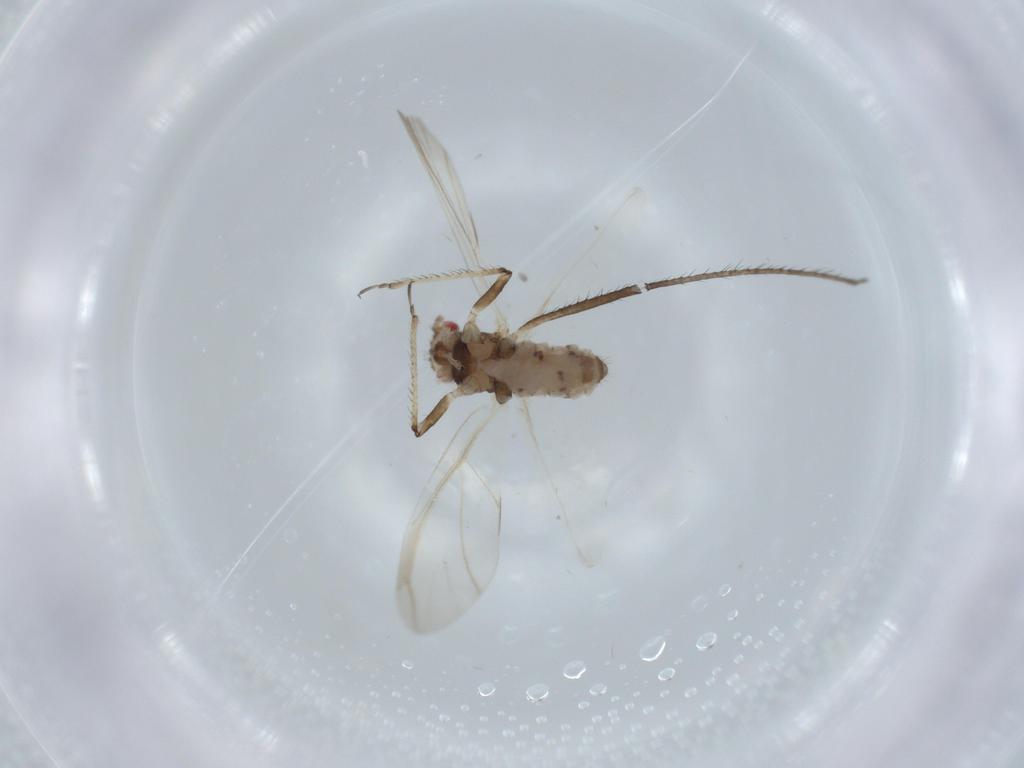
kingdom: Animalia
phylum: Arthropoda
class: Insecta
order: Hemiptera
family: Aphididae
